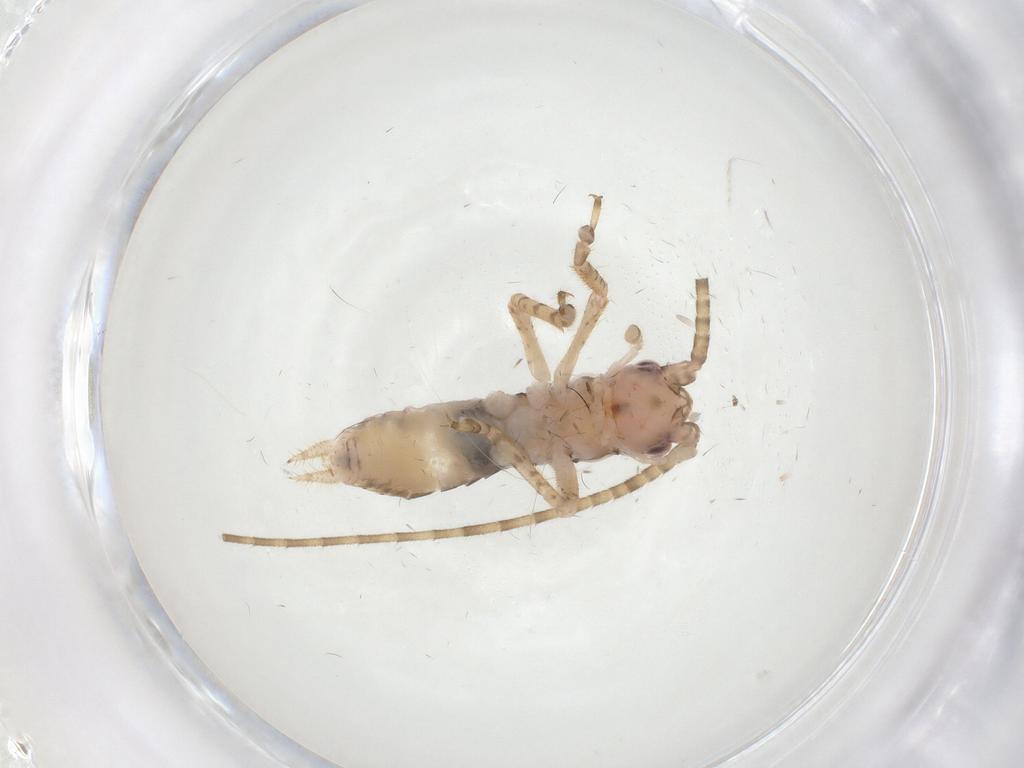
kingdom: Animalia
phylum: Arthropoda
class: Insecta
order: Orthoptera
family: Gryllidae
